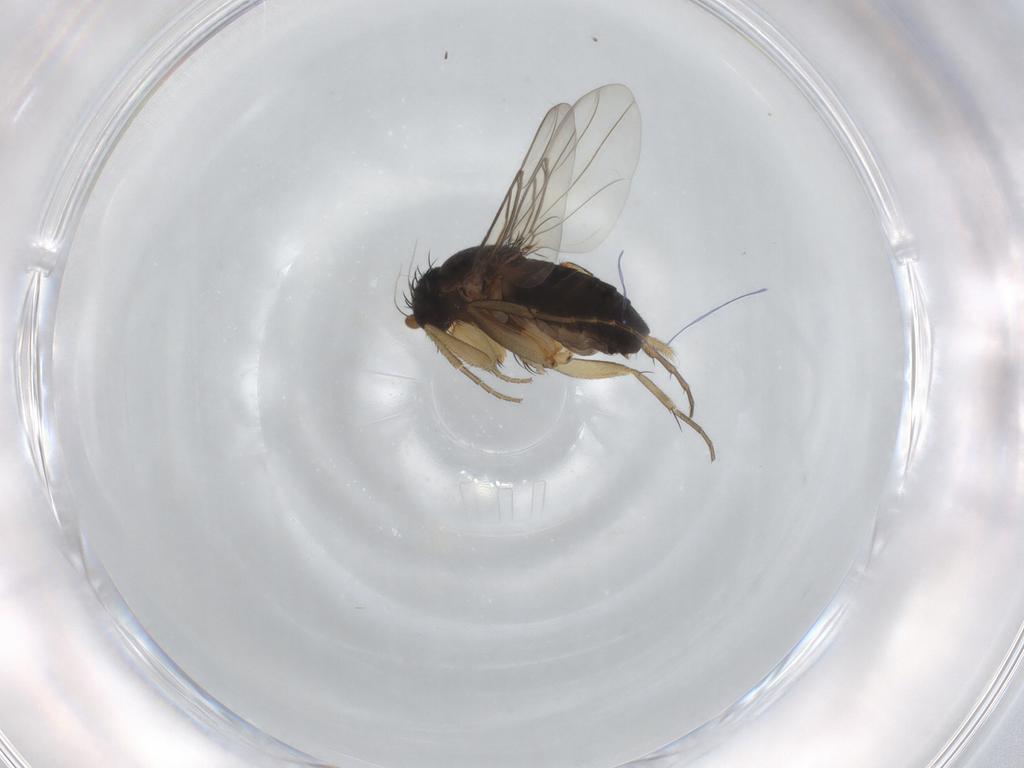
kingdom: Animalia
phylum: Arthropoda
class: Insecta
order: Diptera
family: Phoridae
